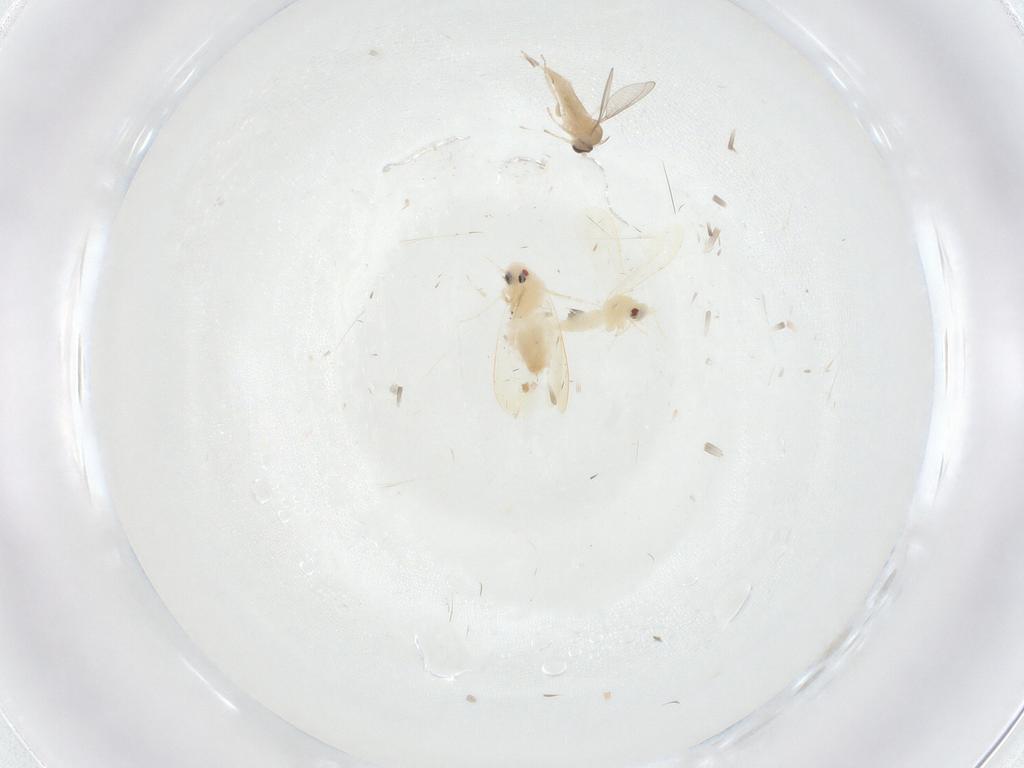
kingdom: Animalia
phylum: Arthropoda
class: Insecta
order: Diptera
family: Cecidomyiidae
